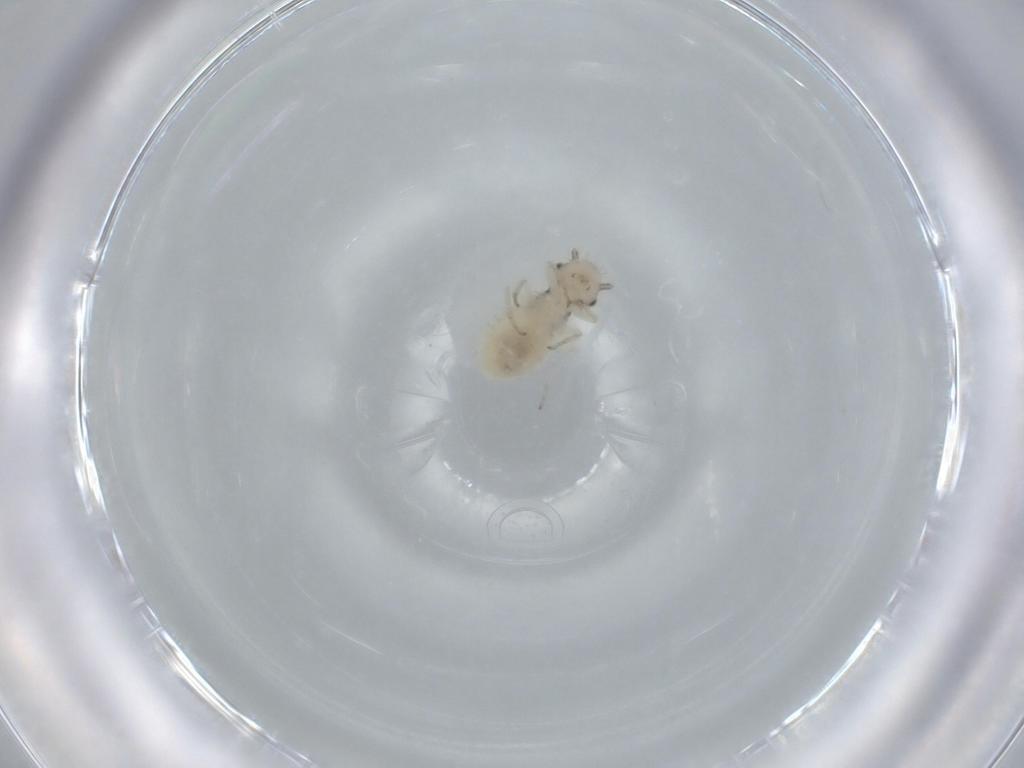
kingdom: Animalia
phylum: Arthropoda
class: Insecta
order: Psocodea
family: Pseudocaeciliidae
